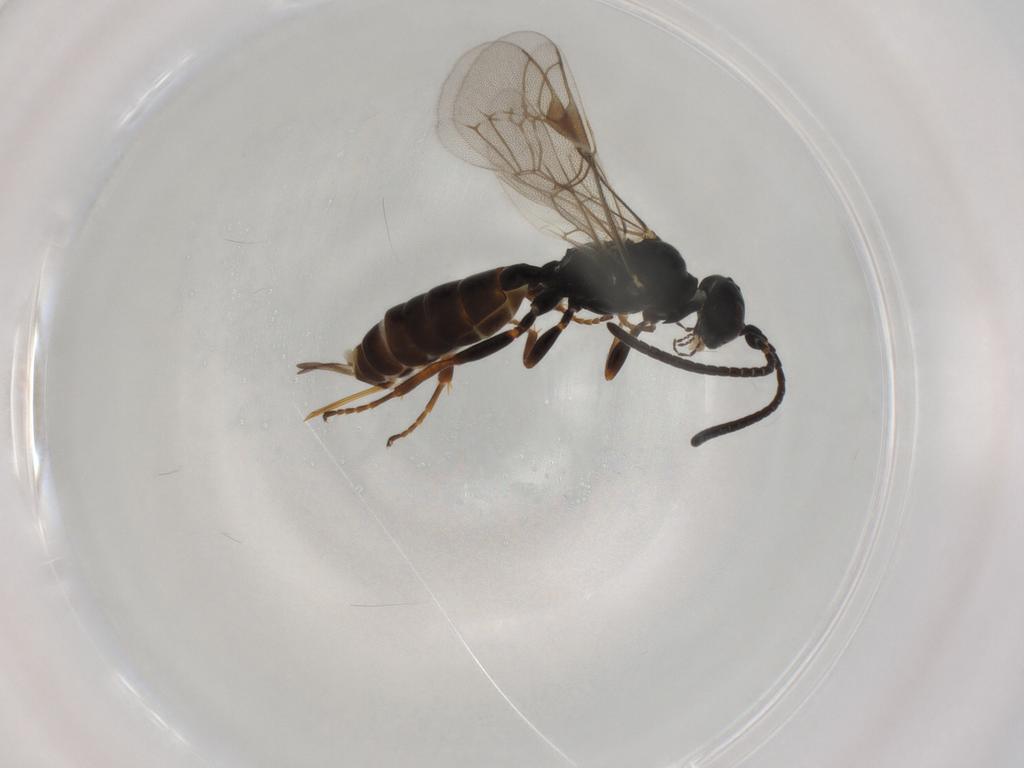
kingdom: Animalia
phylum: Arthropoda
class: Insecta
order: Hymenoptera
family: Ichneumonidae
